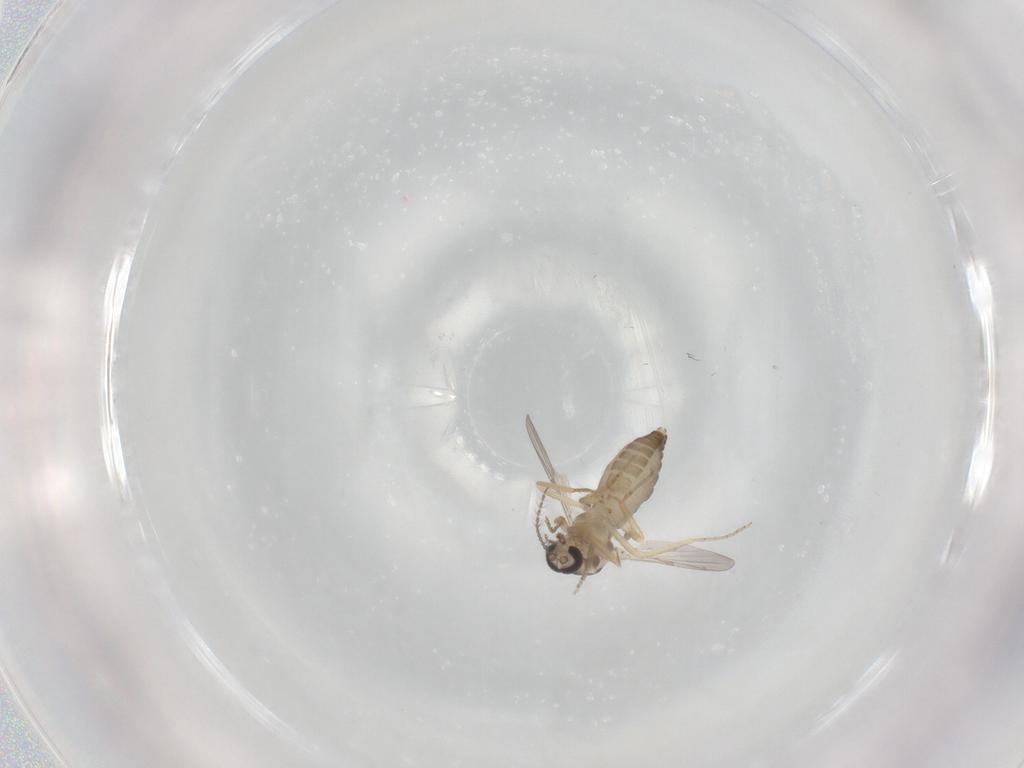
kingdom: Animalia
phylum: Arthropoda
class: Insecta
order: Diptera
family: Ceratopogonidae
